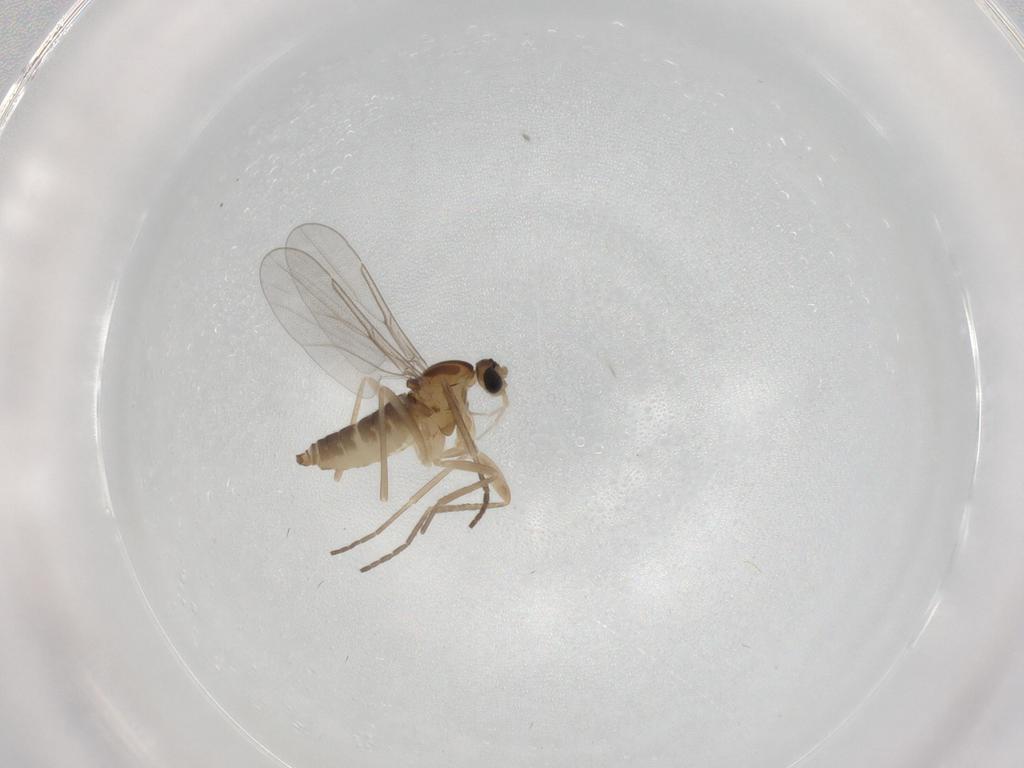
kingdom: Animalia
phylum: Arthropoda
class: Insecta
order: Diptera
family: Cecidomyiidae
